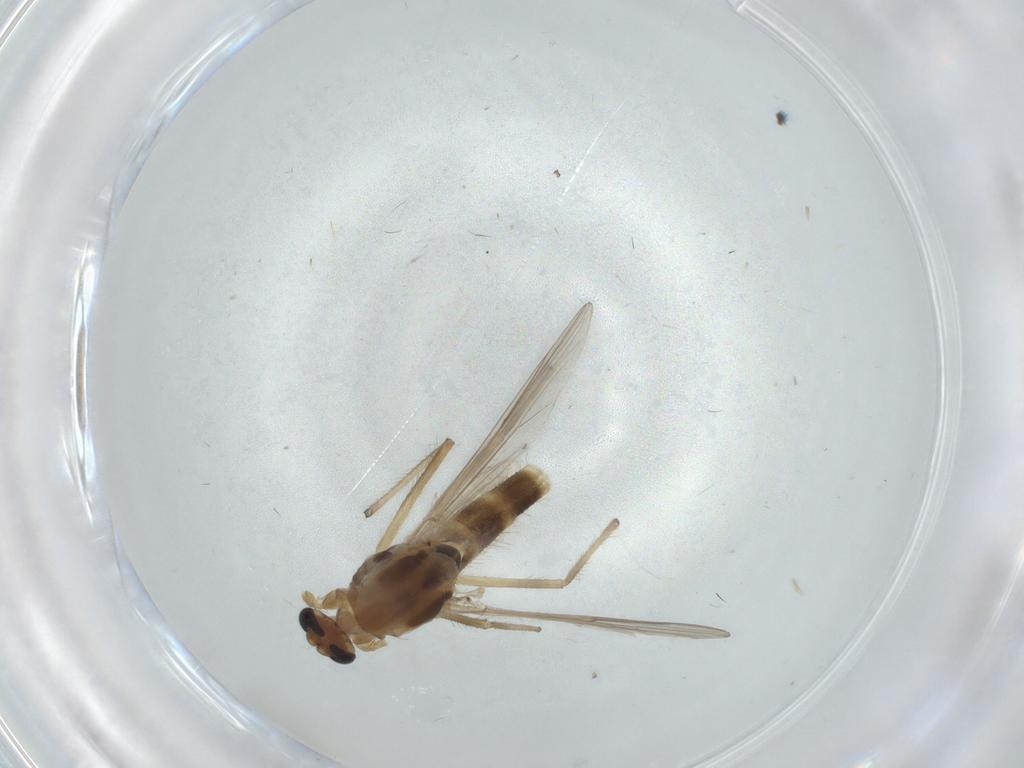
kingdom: Animalia
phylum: Arthropoda
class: Insecta
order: Diptera
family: Chironomidae
